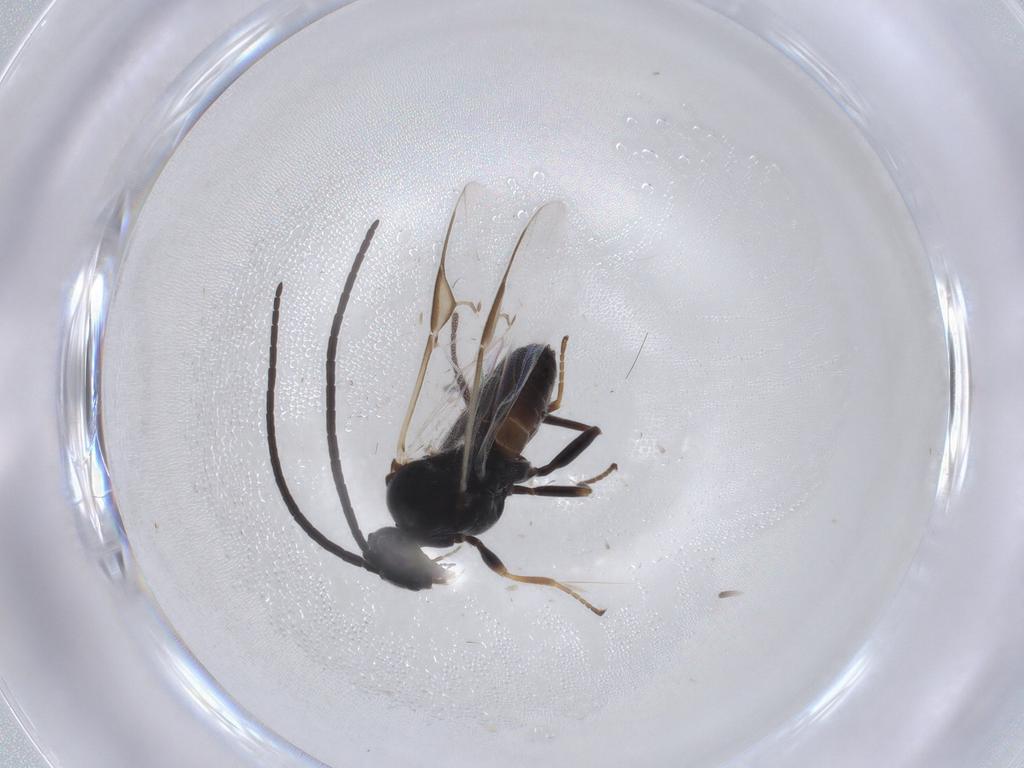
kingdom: Animalia
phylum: Arthropoda
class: Insecta
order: Hymenoptera
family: Braconidae
